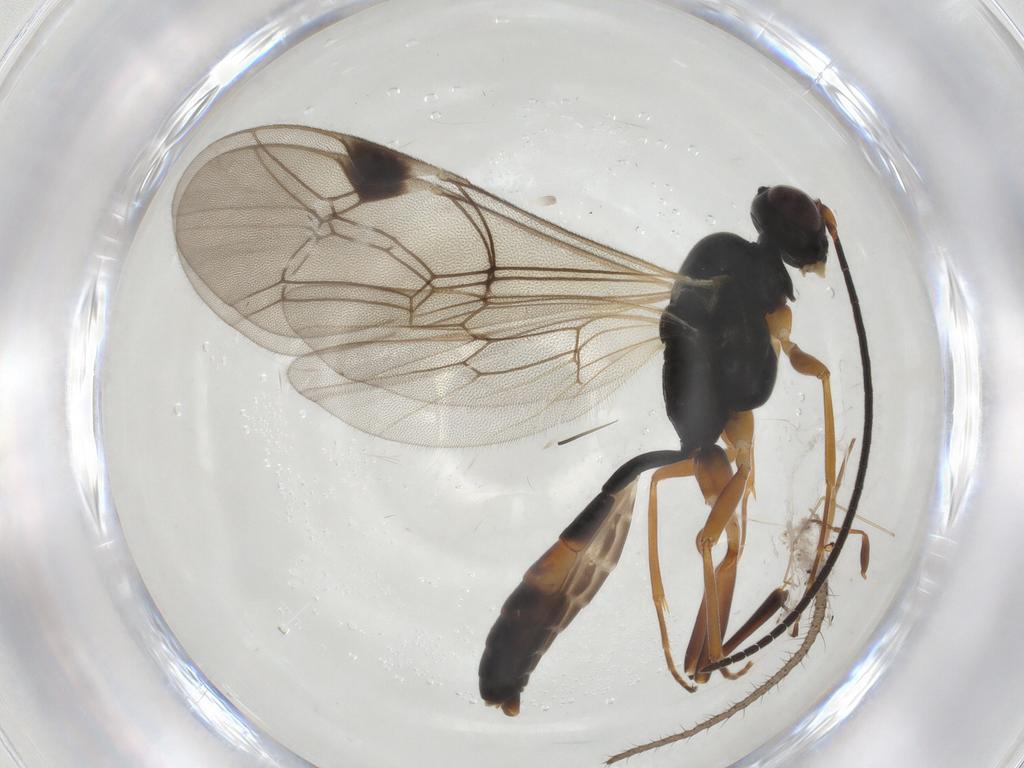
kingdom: Animalia
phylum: Arthropoda
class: Insecta
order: Hymenoptera
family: Ichneumonidae
